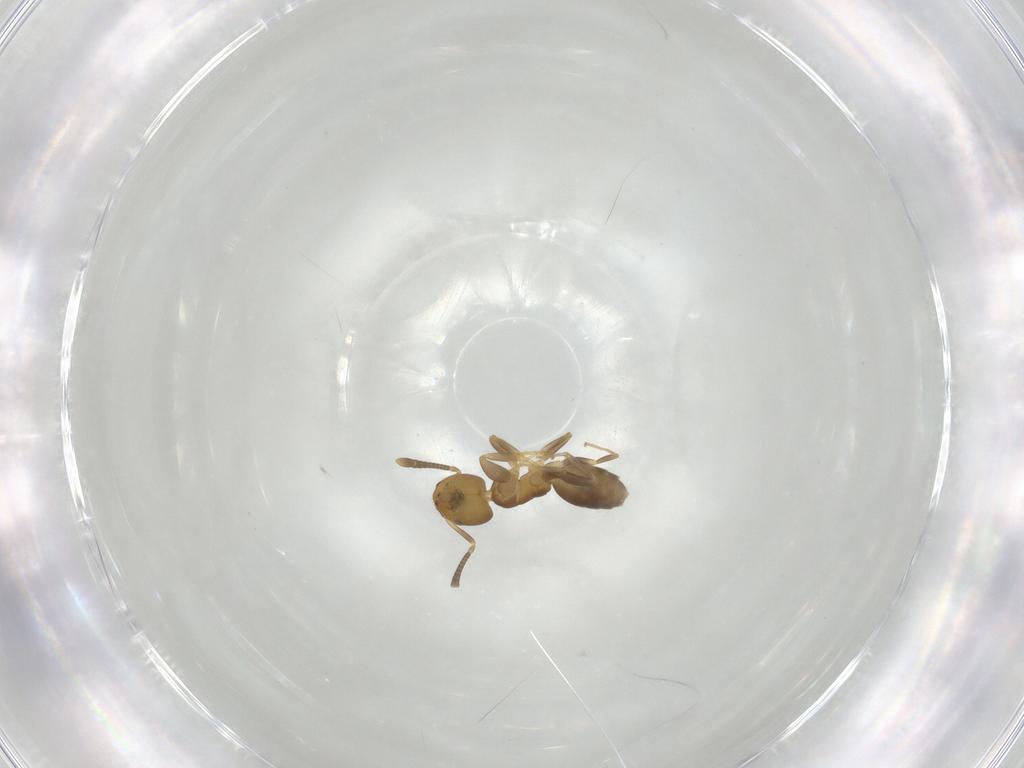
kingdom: Animalia
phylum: Arthropoda
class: Insecta
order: Hymenoptera
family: Formicidae
